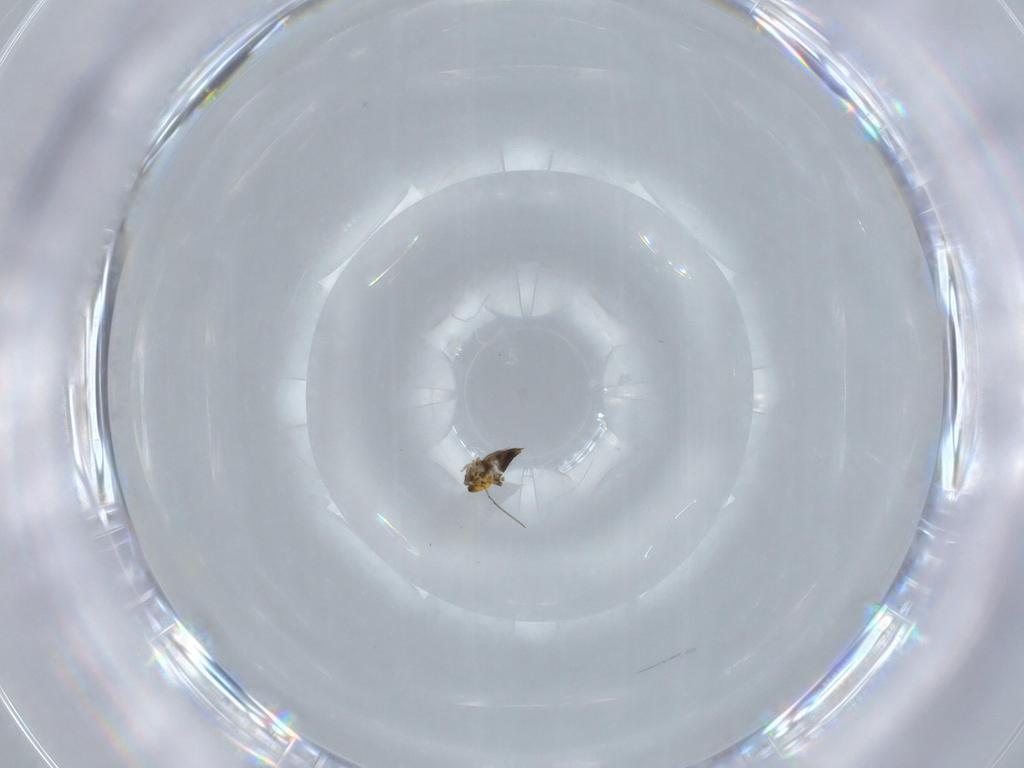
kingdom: Animalia
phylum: Arthropoda
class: Insecta
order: Hymenoptera
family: Trichogrammatidae
